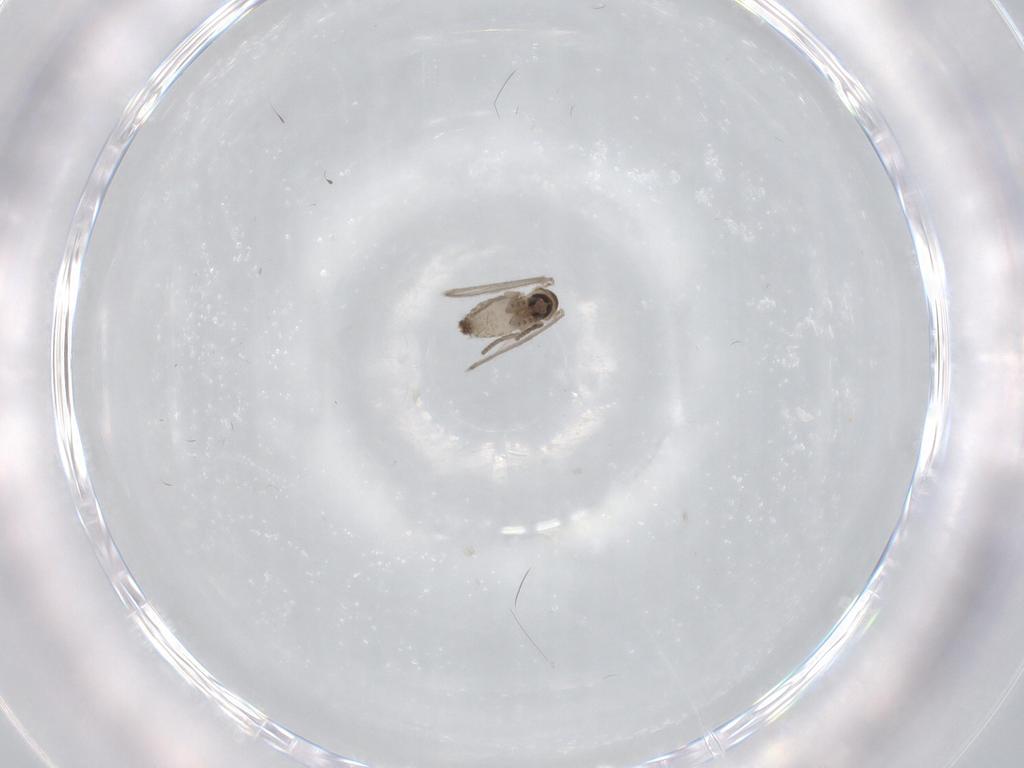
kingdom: Animalia
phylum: Arthropoda
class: Insecta
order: Diptera
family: Psychodidae
